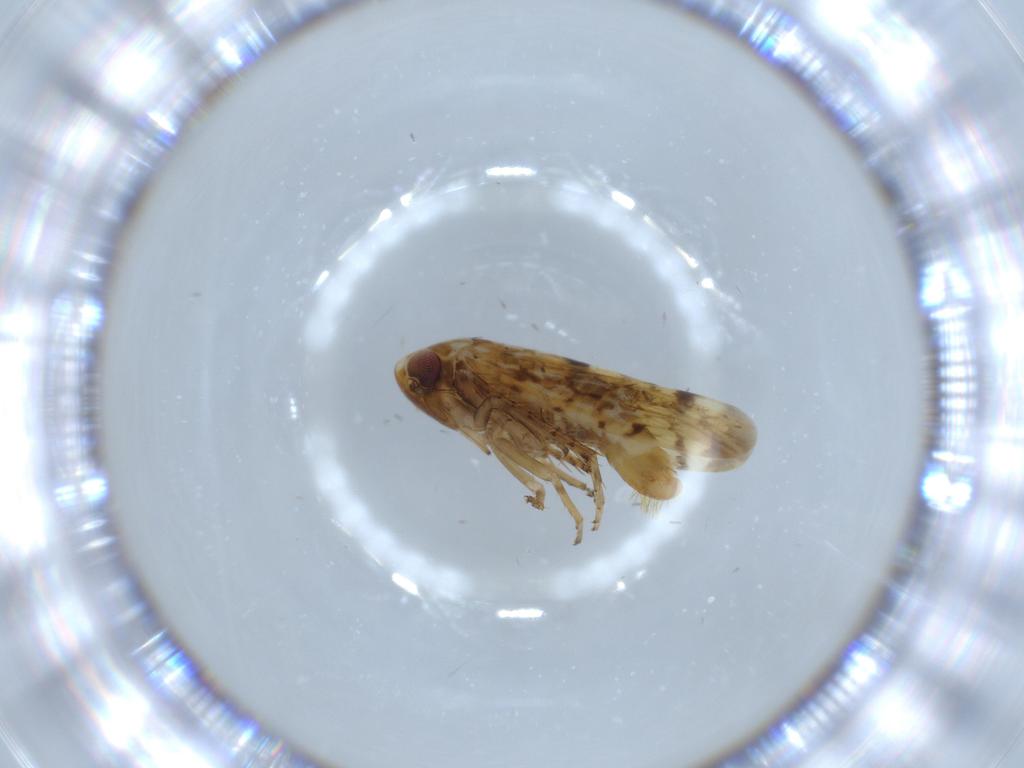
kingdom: Animalia
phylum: Arthropoda
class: Insecta
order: Hemiptera
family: Cicadellidae
